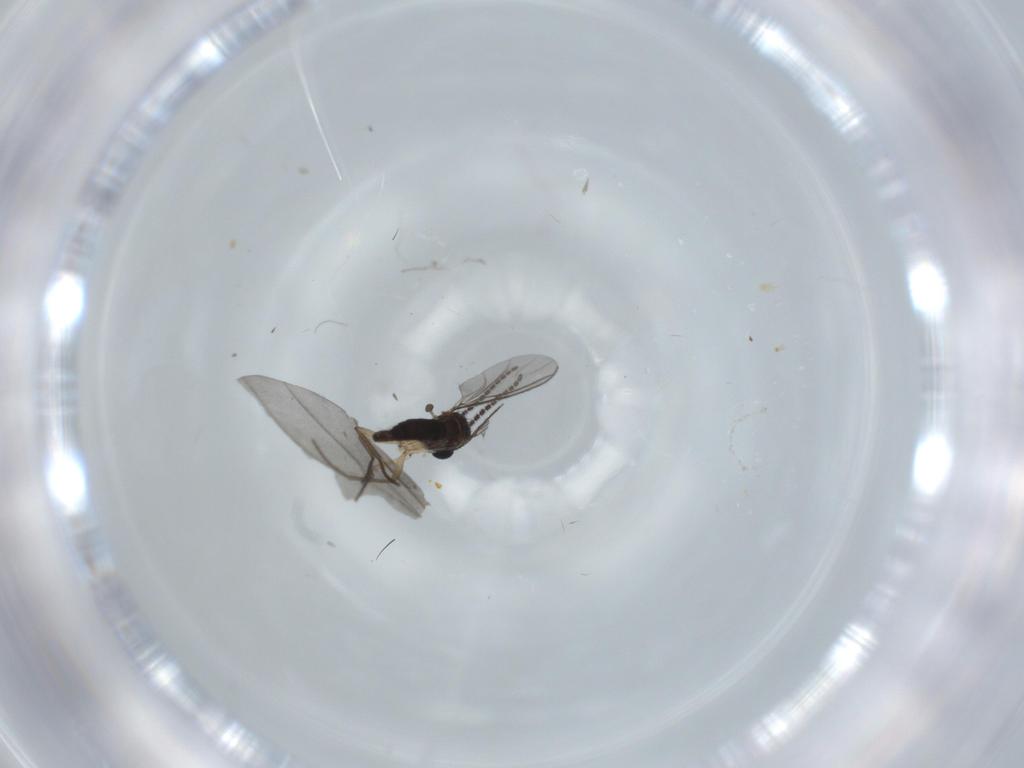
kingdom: Animalia
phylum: Arthropoda
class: Insecta
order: Diptera
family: Sciaridae
